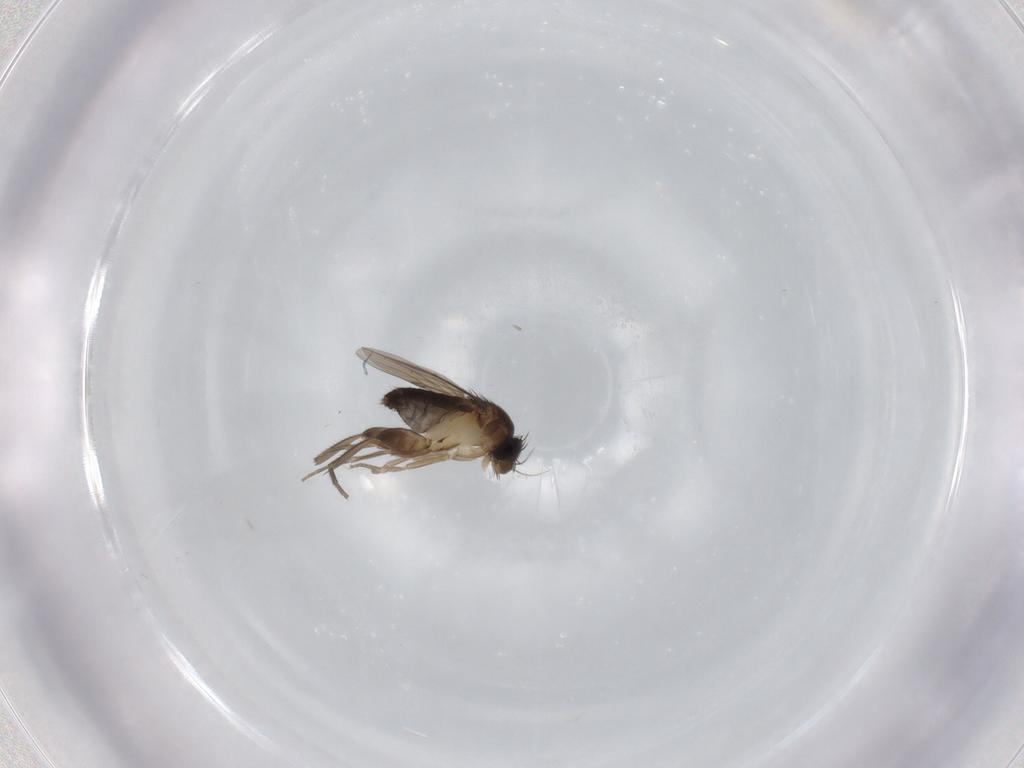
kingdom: Animalia
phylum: Arthropoda
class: Insecta
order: Diptera
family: Phoridae
